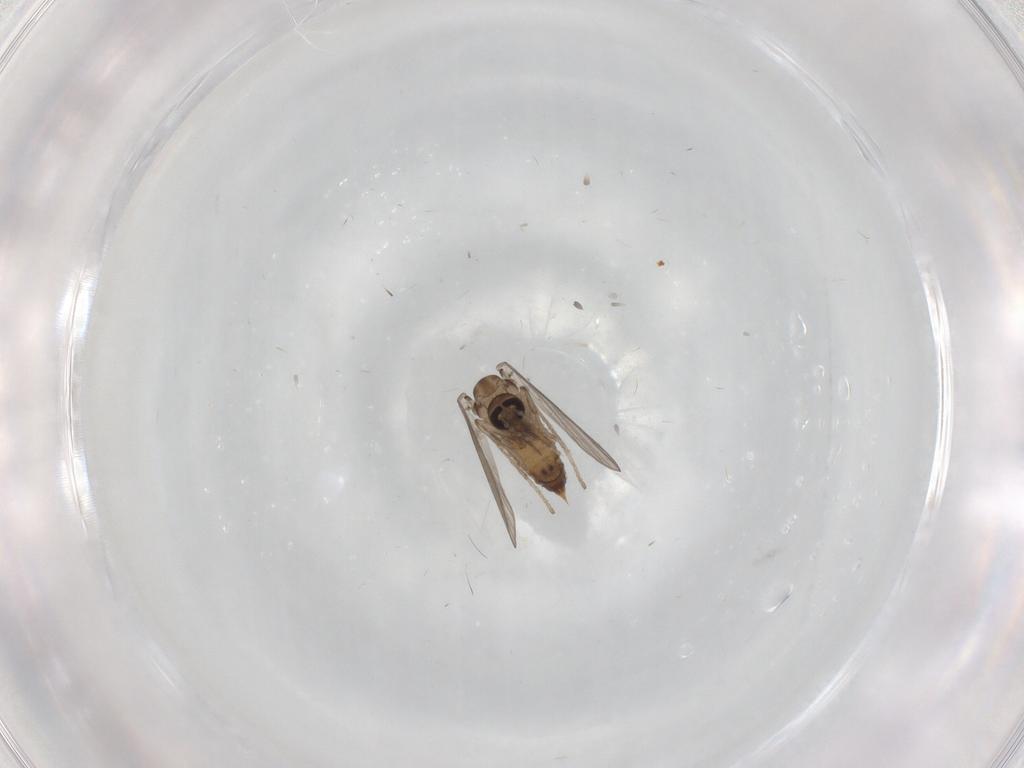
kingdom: Animalia
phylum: Arthropoda
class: Insecta
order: Diptera
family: Psychodidae
